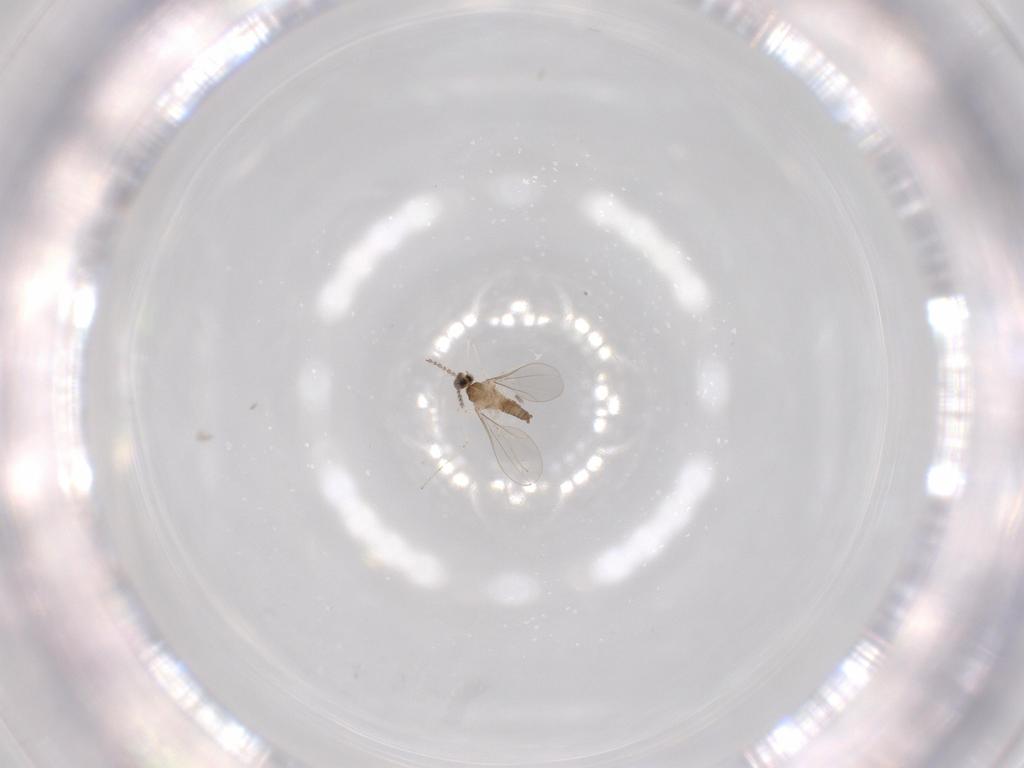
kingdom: Animalia
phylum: Arthropoda
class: Insecta
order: Diptera
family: Cecidomyiidae
